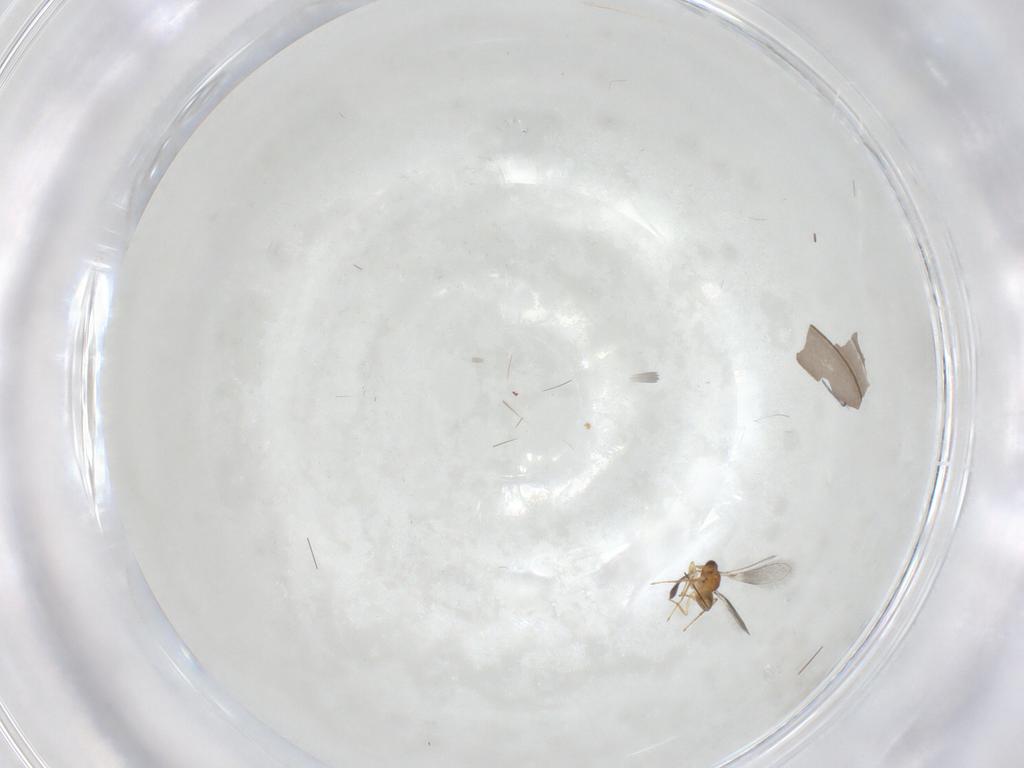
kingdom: Animalia
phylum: Arthropoda
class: Insecta
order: Hymenoptera
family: Mymaridae
